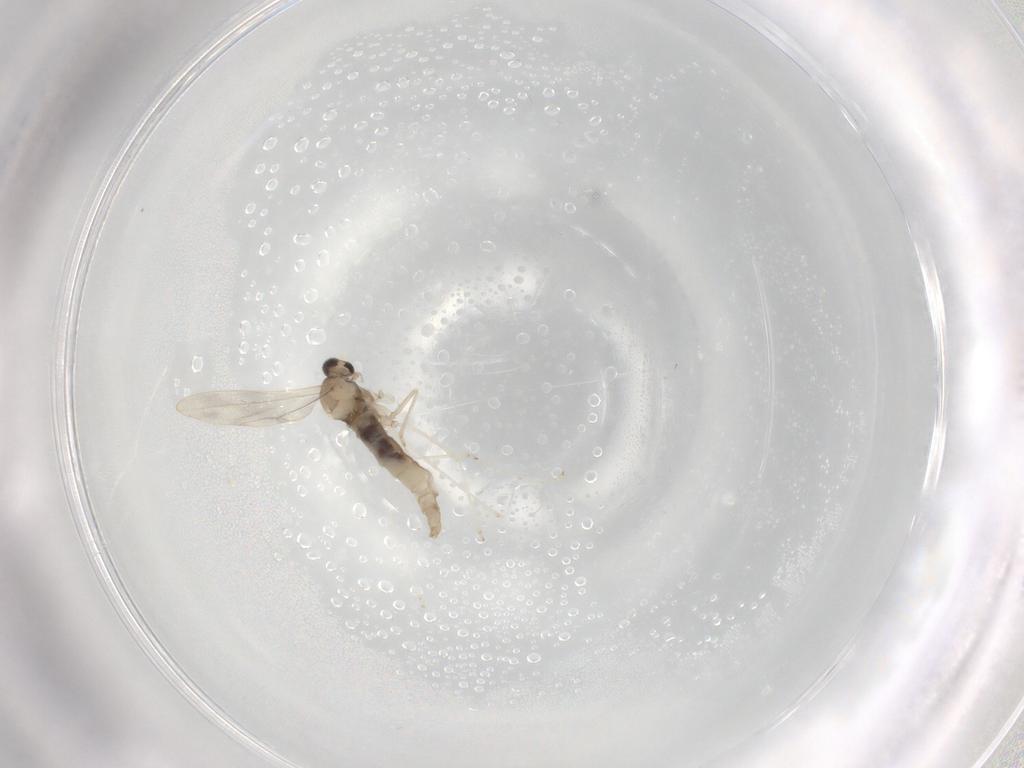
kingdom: Animalia
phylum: Arthropoda
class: Insecta
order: Diptera
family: Cecidomyiidae
